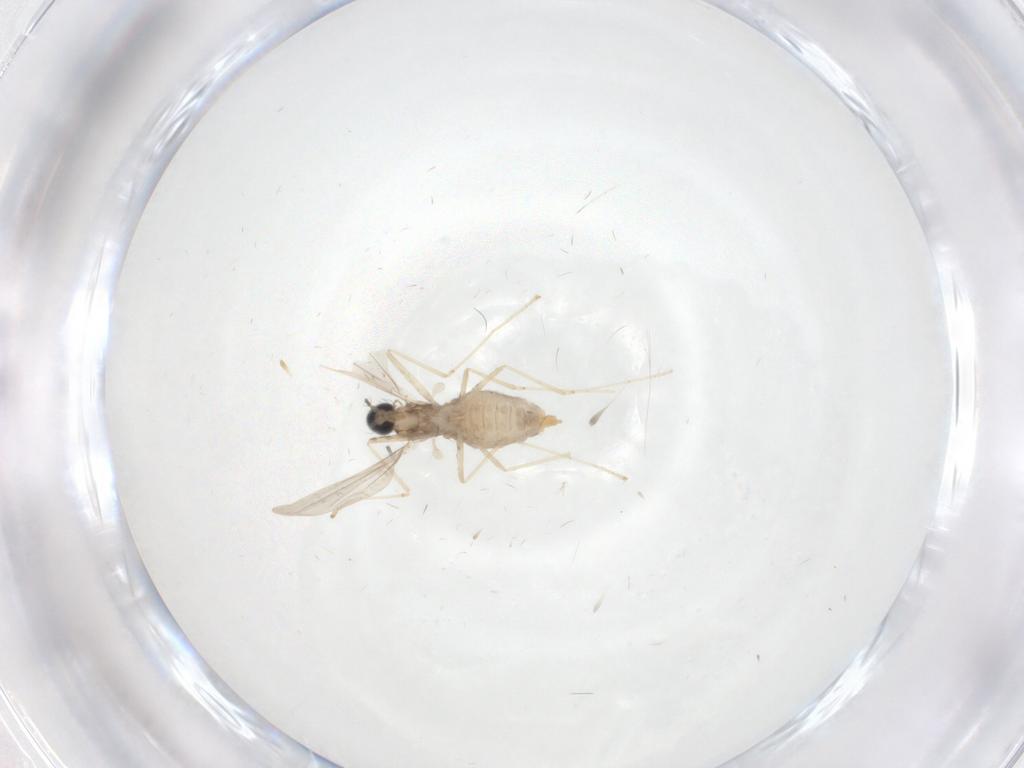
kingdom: Animalia
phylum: Arthropoda
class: Insecta
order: Diptera
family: Cecidomyiidae
